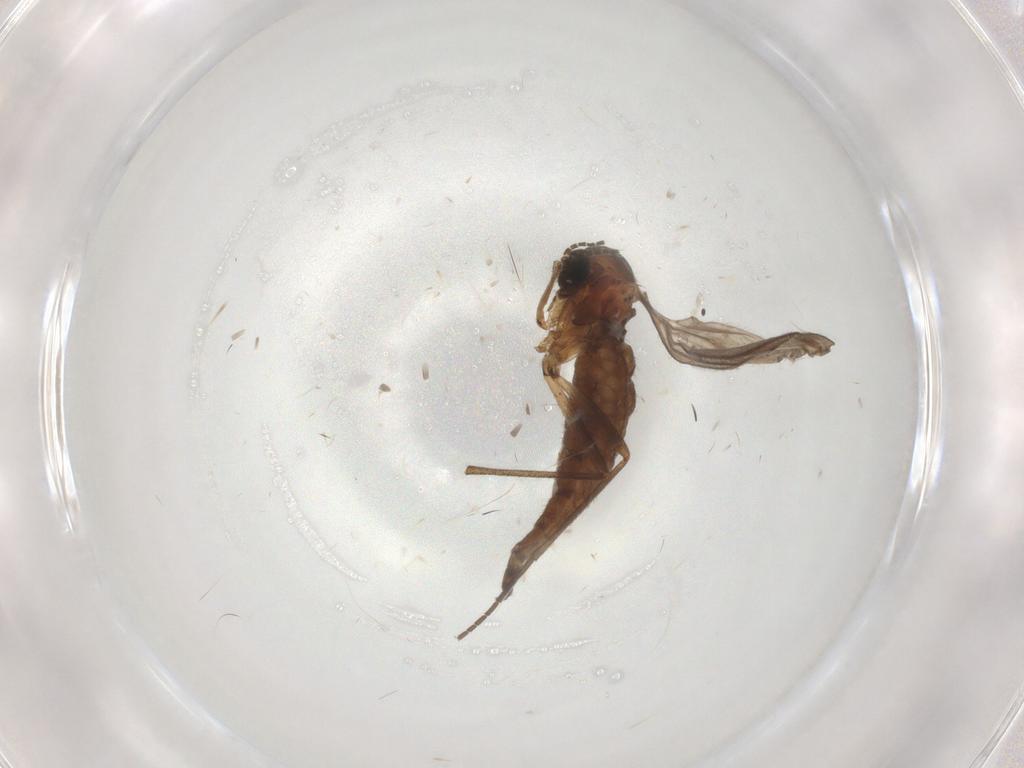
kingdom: Animalia
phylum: Arthropoda
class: Insecta
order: Diptera
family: Sciaridae
